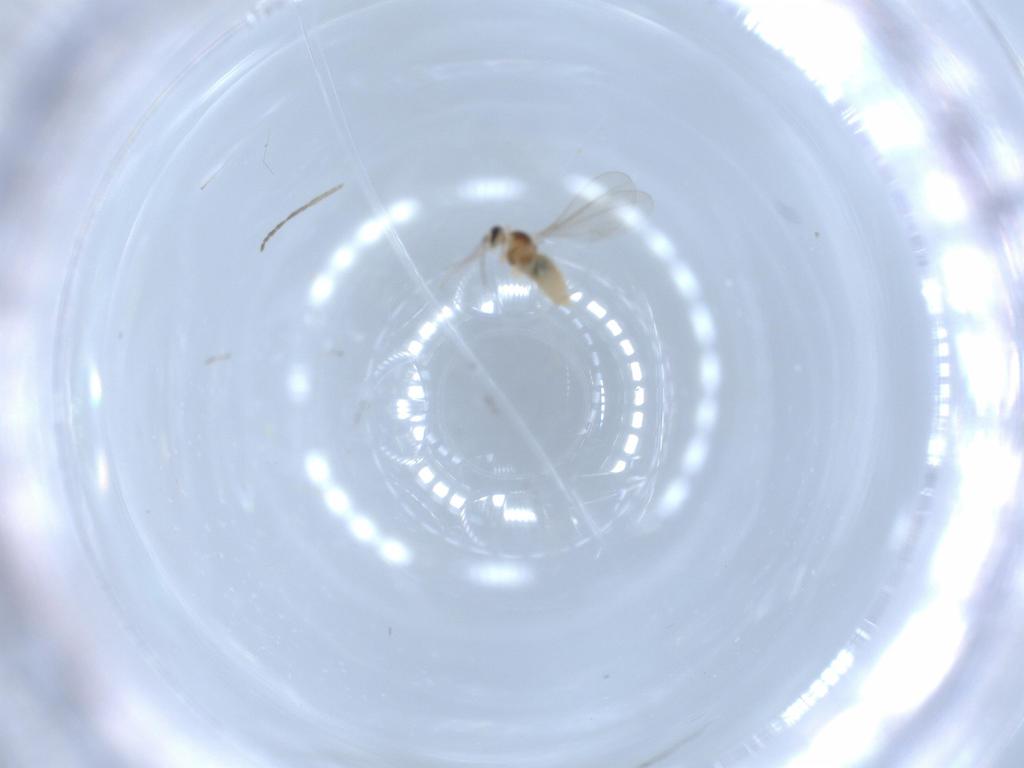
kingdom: Animalia
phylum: Arthropoda
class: Insecta
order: Diptera
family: Cecidomyiidae
